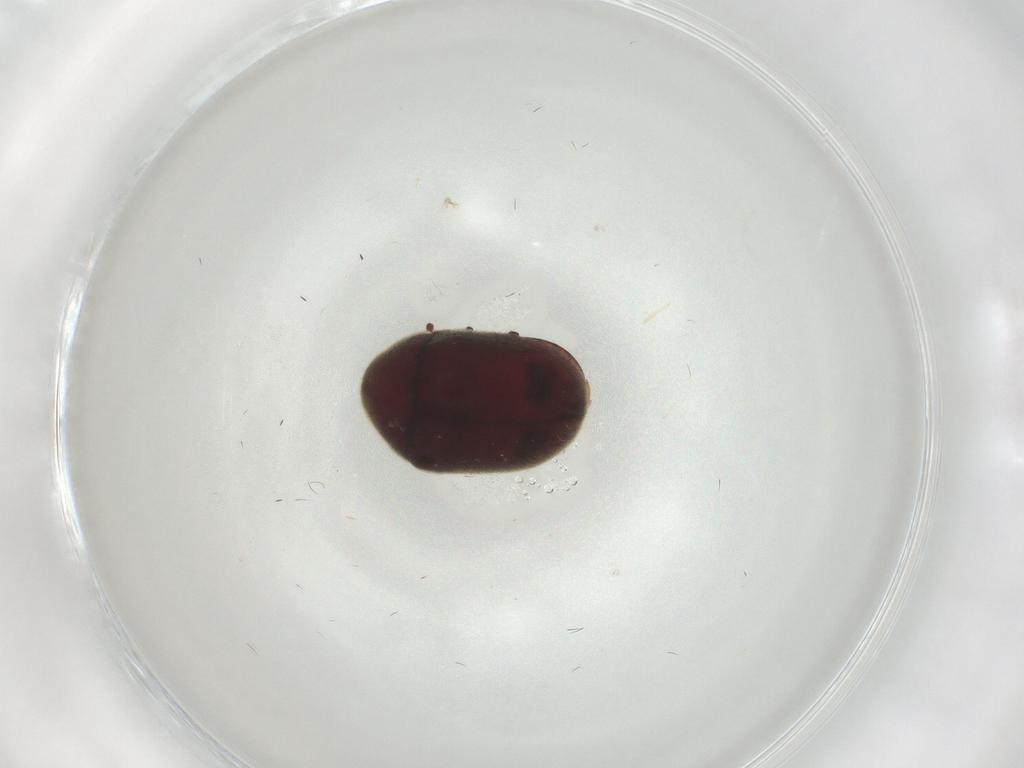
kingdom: Animalia
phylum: Arthropoda
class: Insecta
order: Coleoptera
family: Ptinidae
